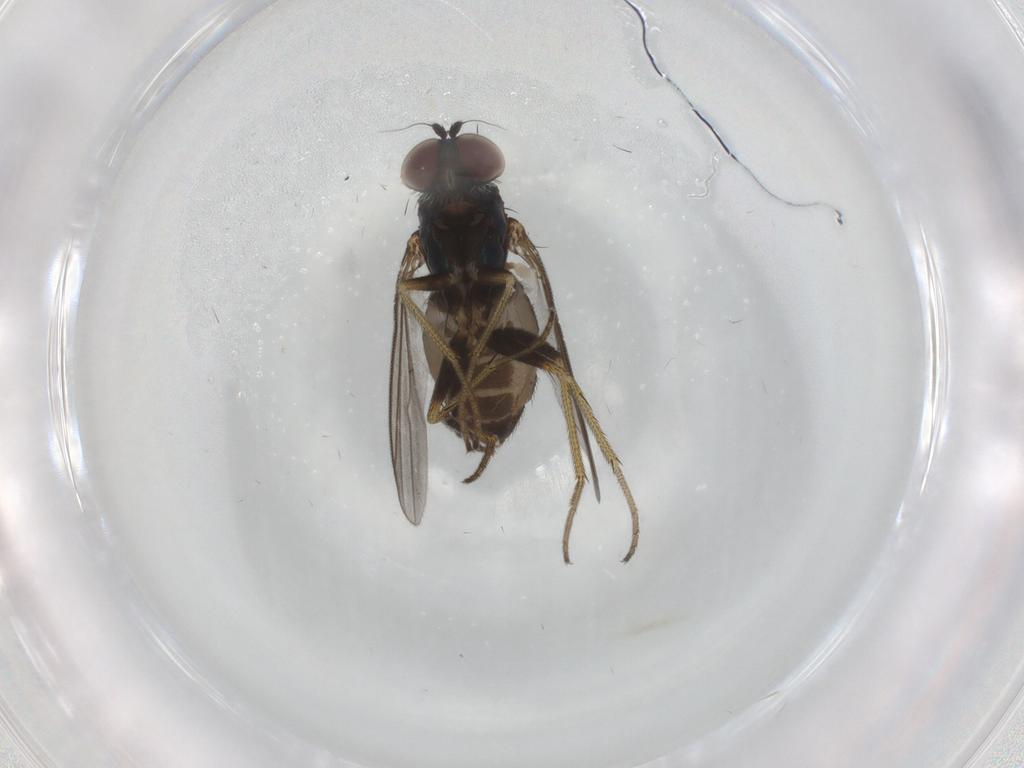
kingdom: Animalia
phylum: Arthropoda
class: Insecta
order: Diptera
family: Dolichopodidae
